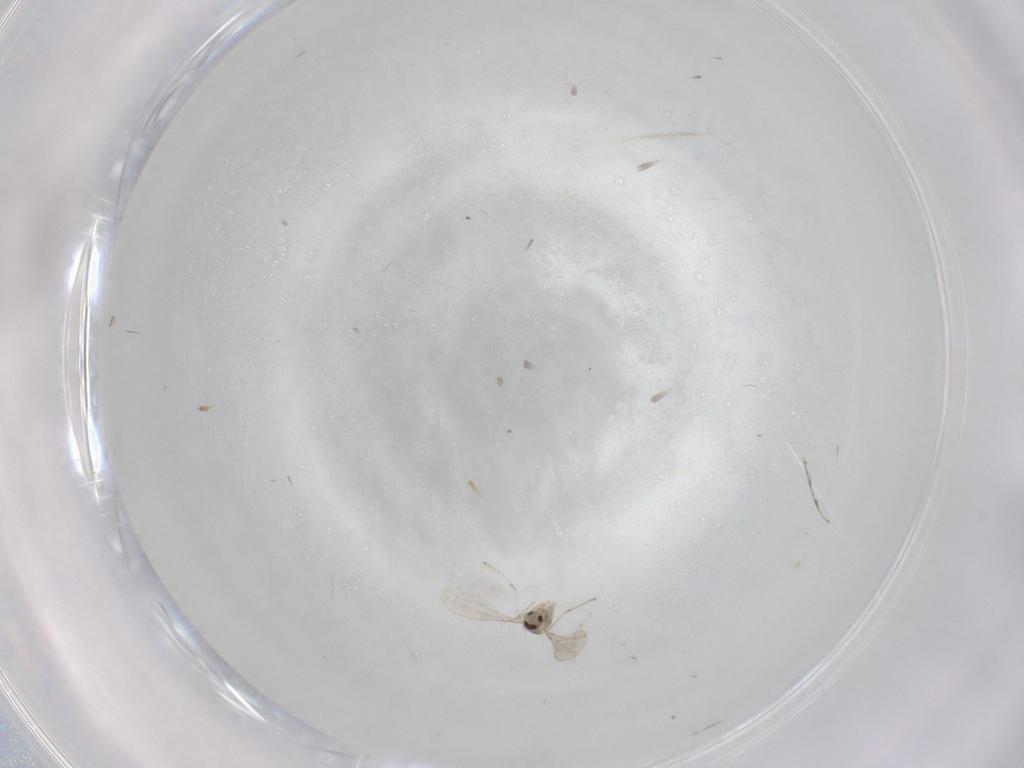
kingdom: Animalia
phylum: Arthropoda
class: Insecta
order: Diptera
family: Cecidomyiidae
